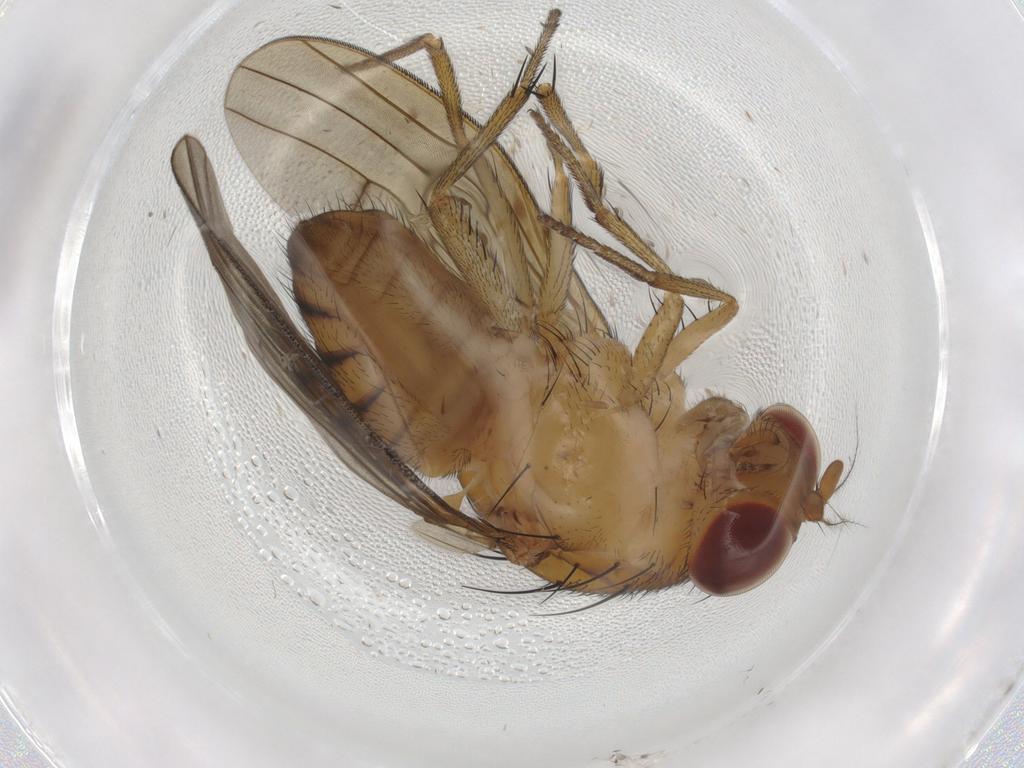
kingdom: Animalia
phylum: Arthropoda
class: Insecta
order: Diptera
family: Sphaeroceridae
